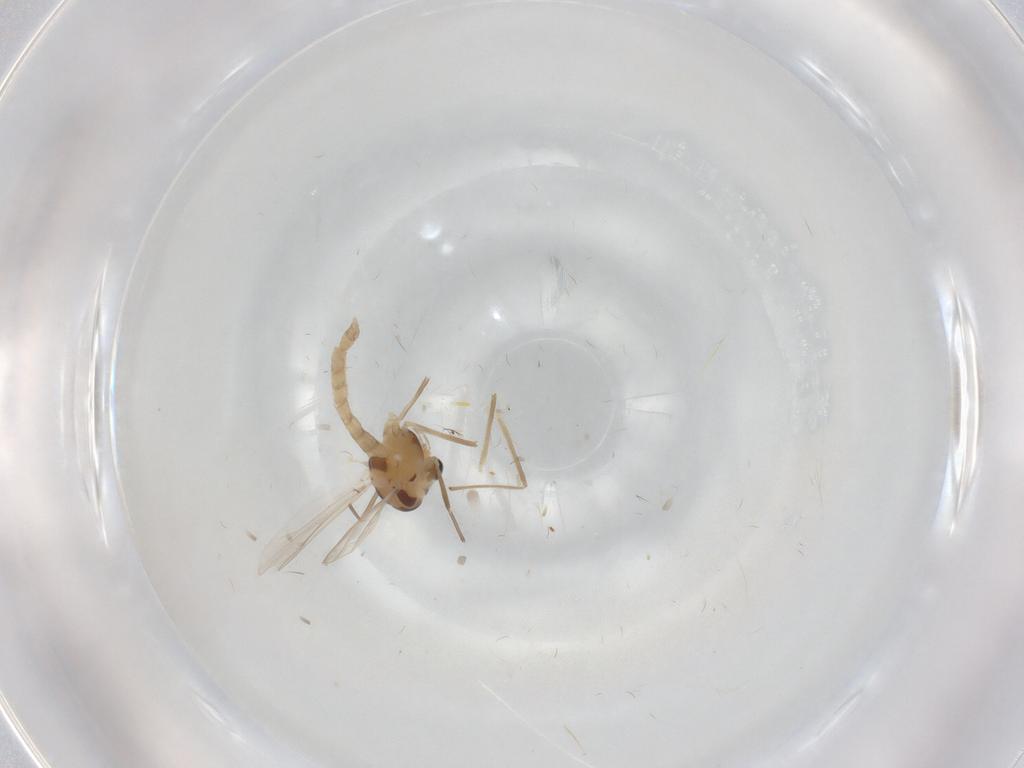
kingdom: Animalia
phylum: Arthropoda
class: Insecta
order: Diptera
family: Chironomidae
